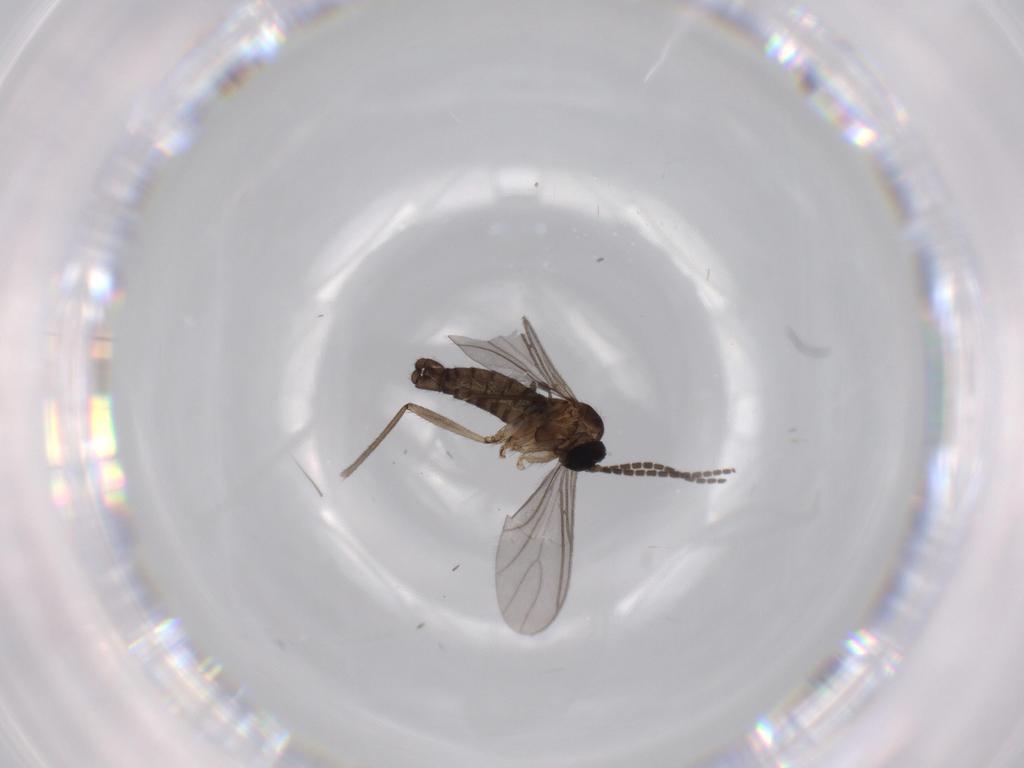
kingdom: Animalia
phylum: Arthropoda
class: Insecta
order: Diptera
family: Sciaridae
